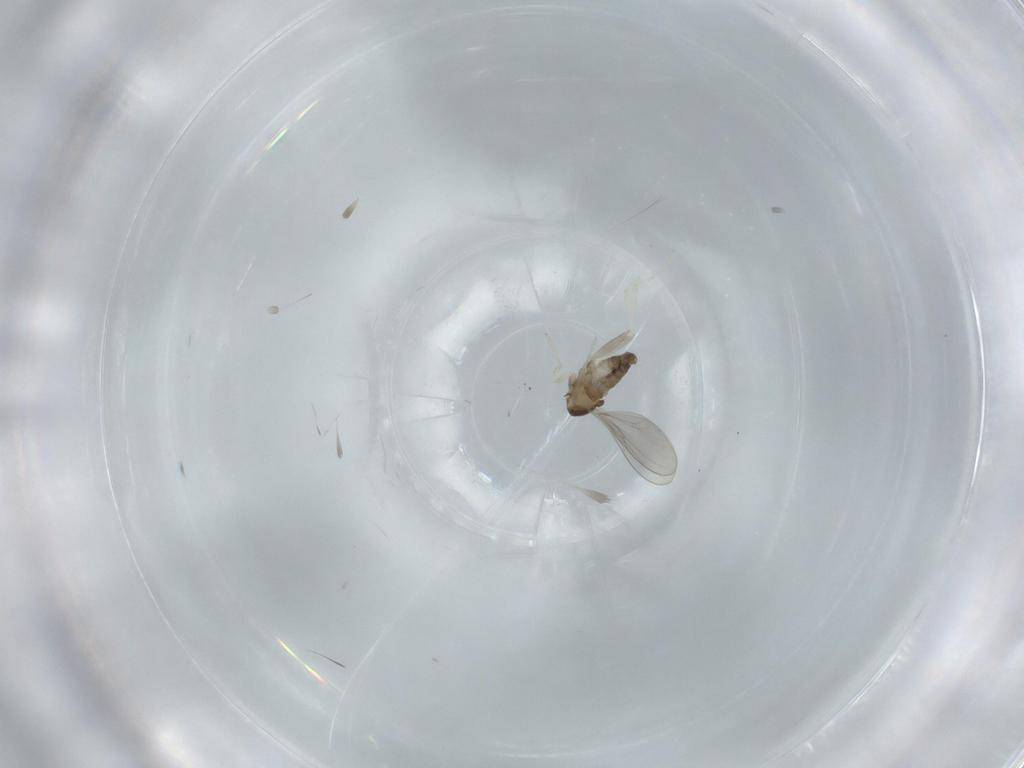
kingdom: Animalia
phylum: Arthropoda
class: Insecta
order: Diptera
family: Cecidomyiidae
